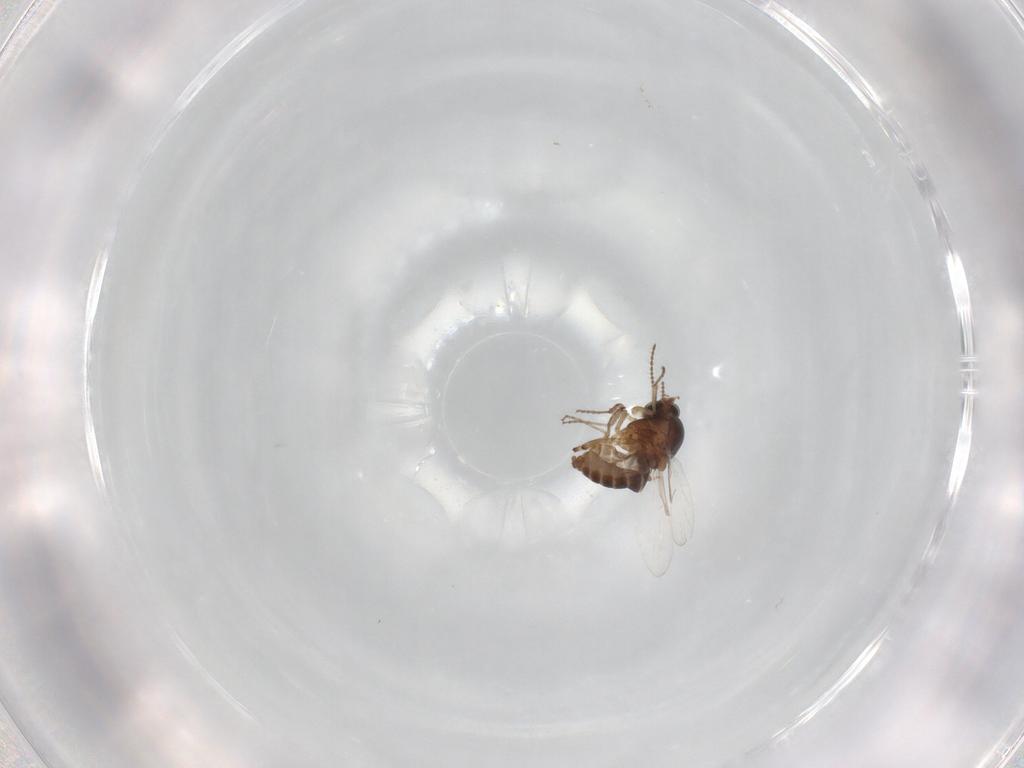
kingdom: Animalia
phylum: Arthropoda
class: Insecta
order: Diptera
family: Ceratopogonidae
